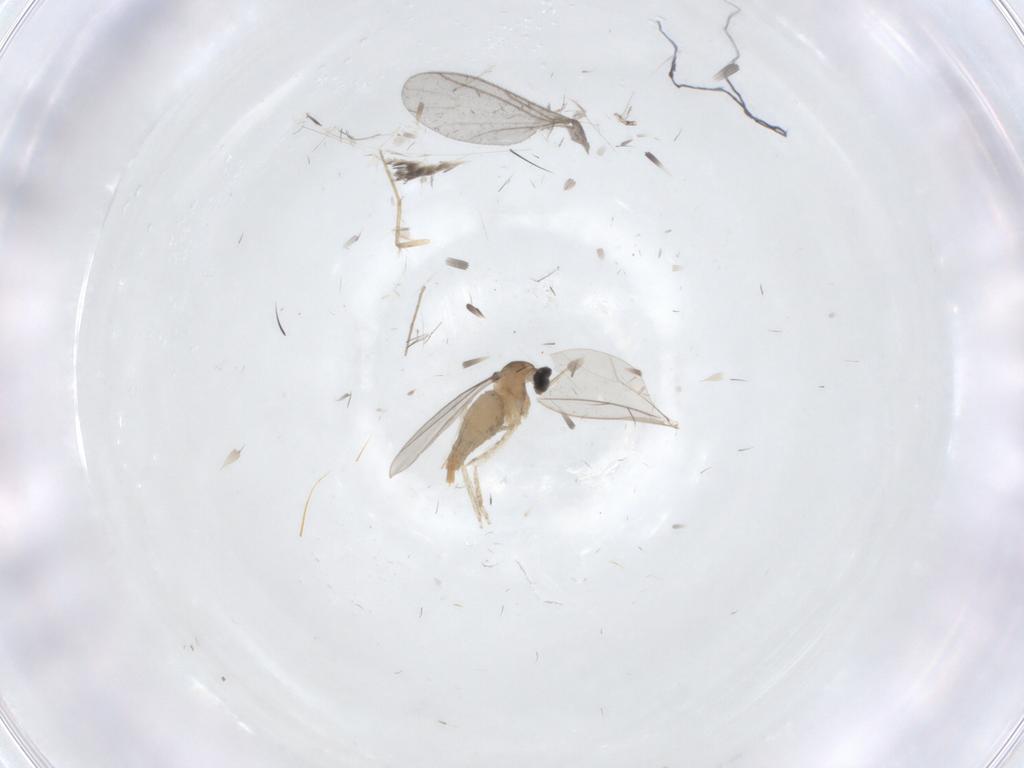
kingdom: Animalia
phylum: Arthropoda
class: Insecta
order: Diptera
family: Cecidomyiidae
